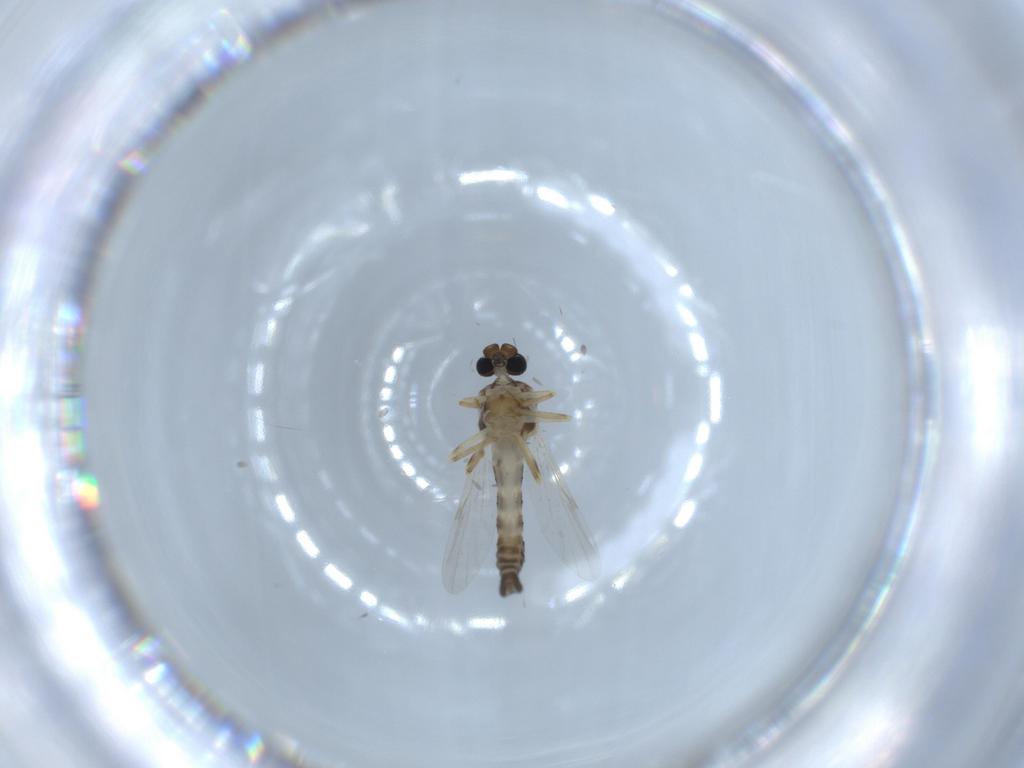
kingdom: Animalia
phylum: Arthropoda
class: Insecta
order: Diptera
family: Ceratopogonidae
